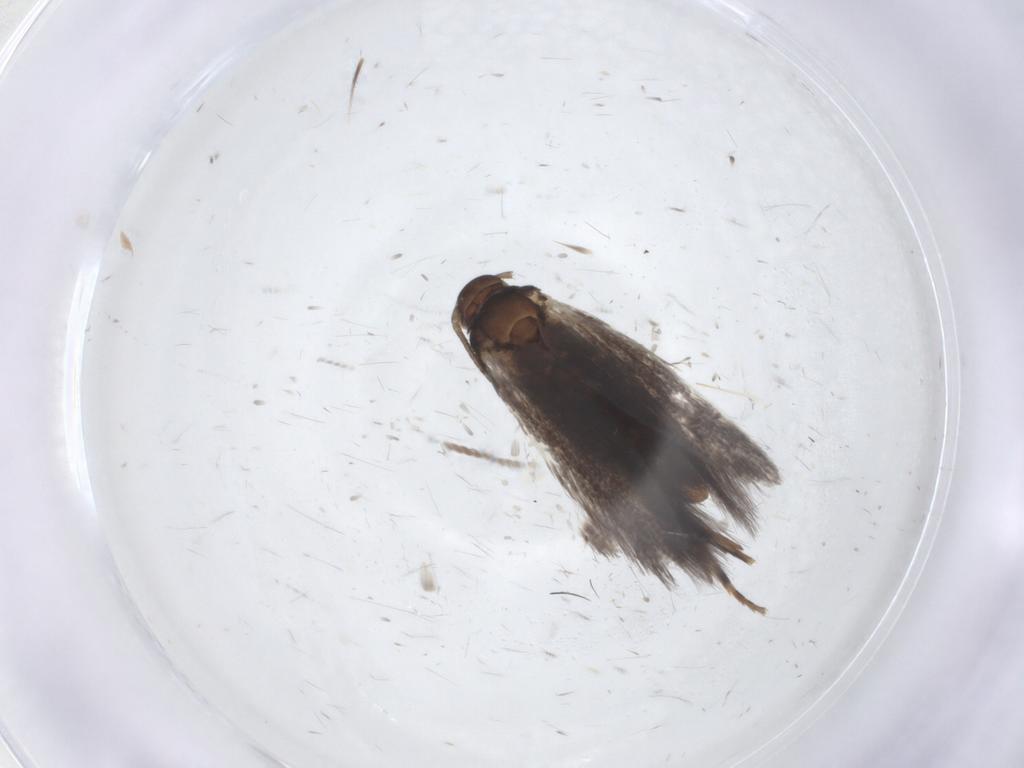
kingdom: Animalia
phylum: Arthropoda
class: Insecta
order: Lepidoptera
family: Elachistidae
